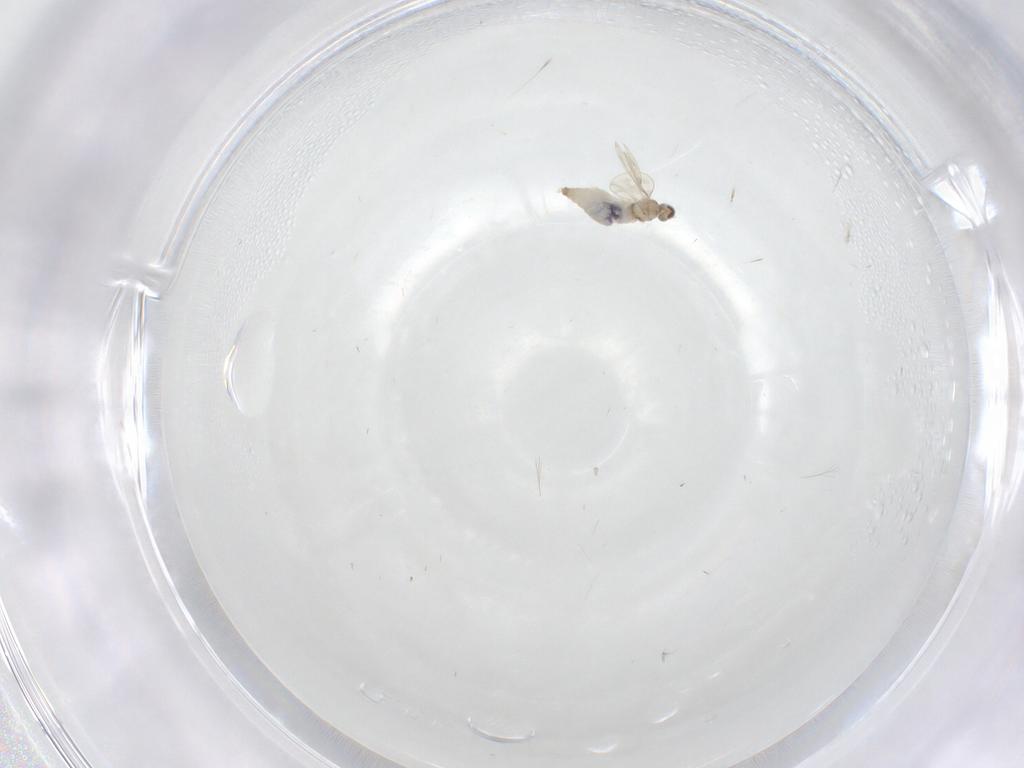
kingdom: Animalia
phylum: Arthropoda
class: Insecta
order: Diptera
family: Cecidomyiidae
